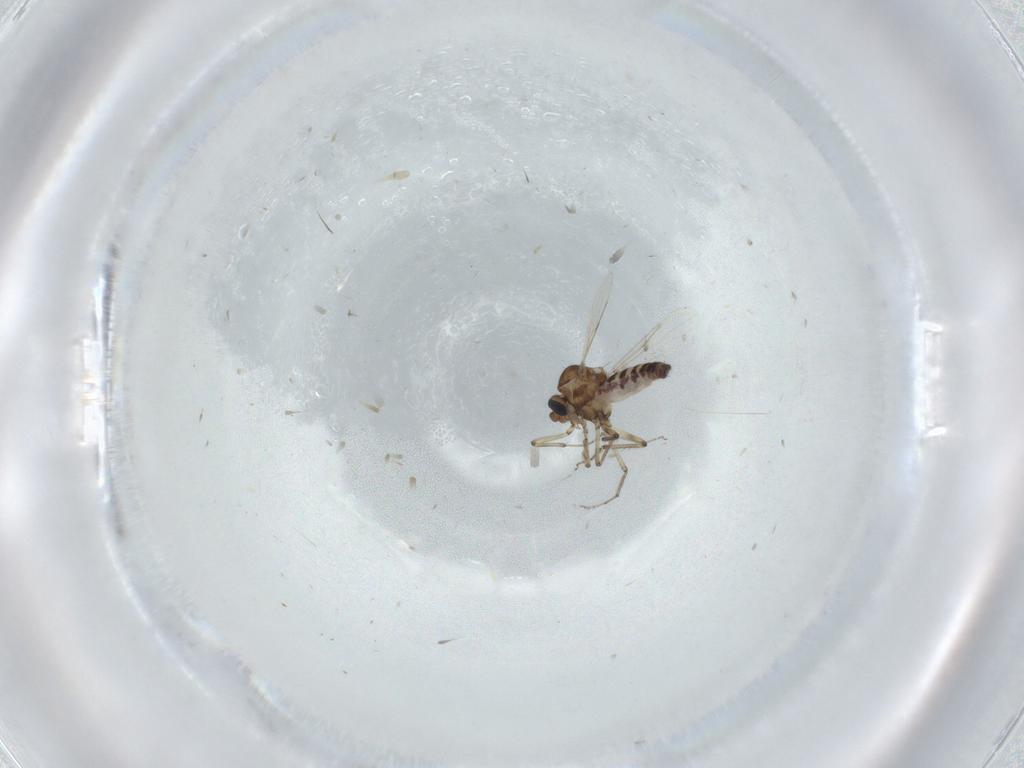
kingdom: Animalia
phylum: Arthropoda
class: Insecta
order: Diptera
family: Ceratopogonidae
